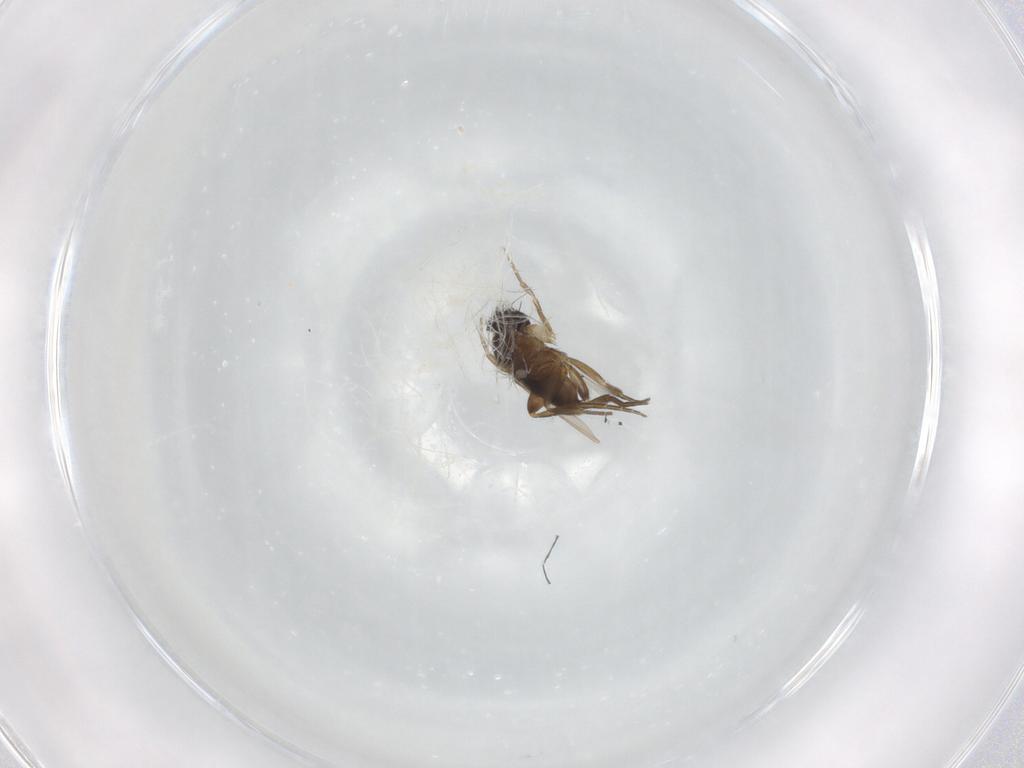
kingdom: Animalia
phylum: Arthropoda
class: Insecta
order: Diptera
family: Phoridae
